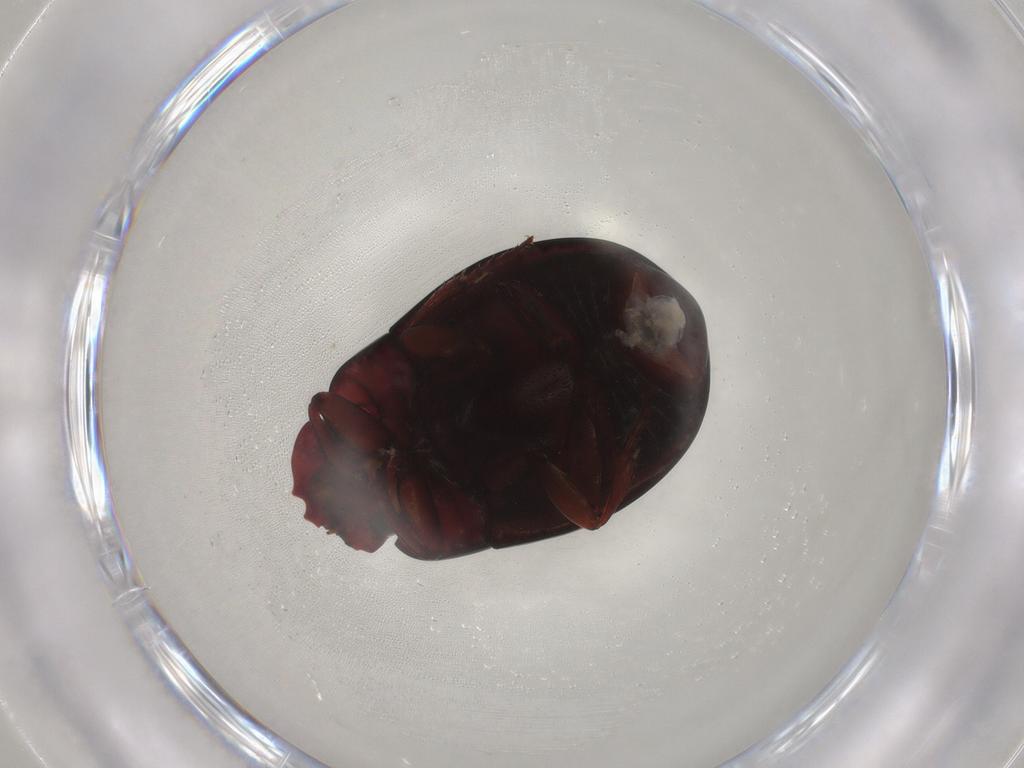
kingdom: Animalia
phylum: Arthropoda
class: Insecta
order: Coleoptera
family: Scarabaeidae
